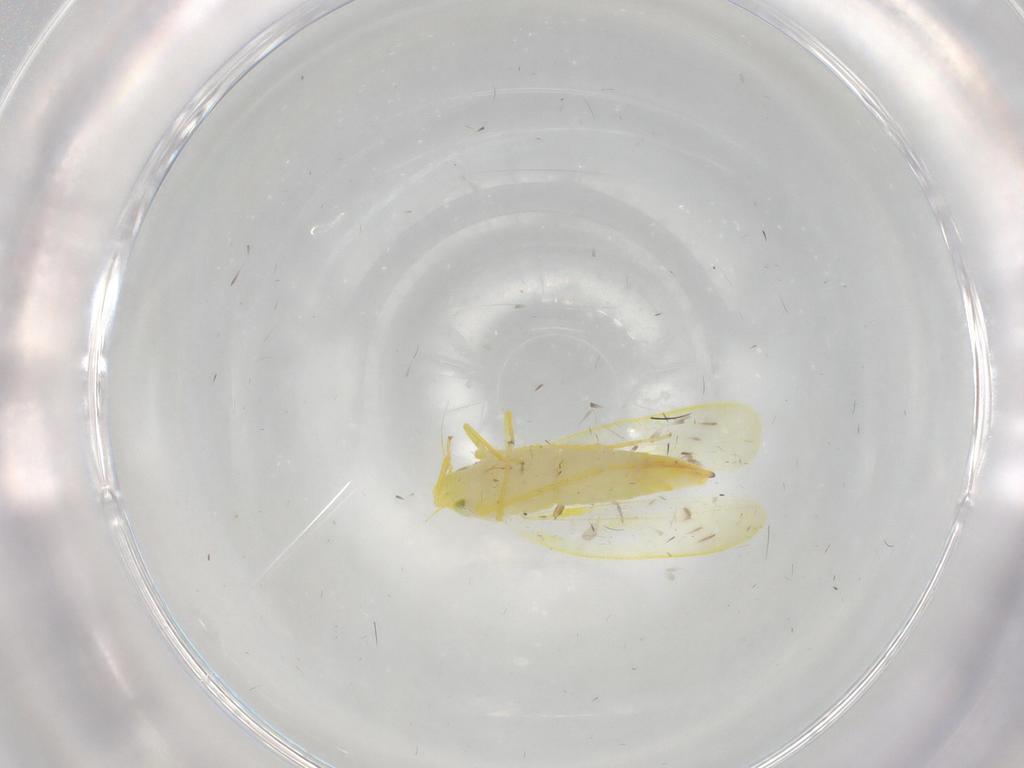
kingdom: Animalia
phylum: Arthropoda
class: Insecta
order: Hemiptera
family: Cicadellidae
